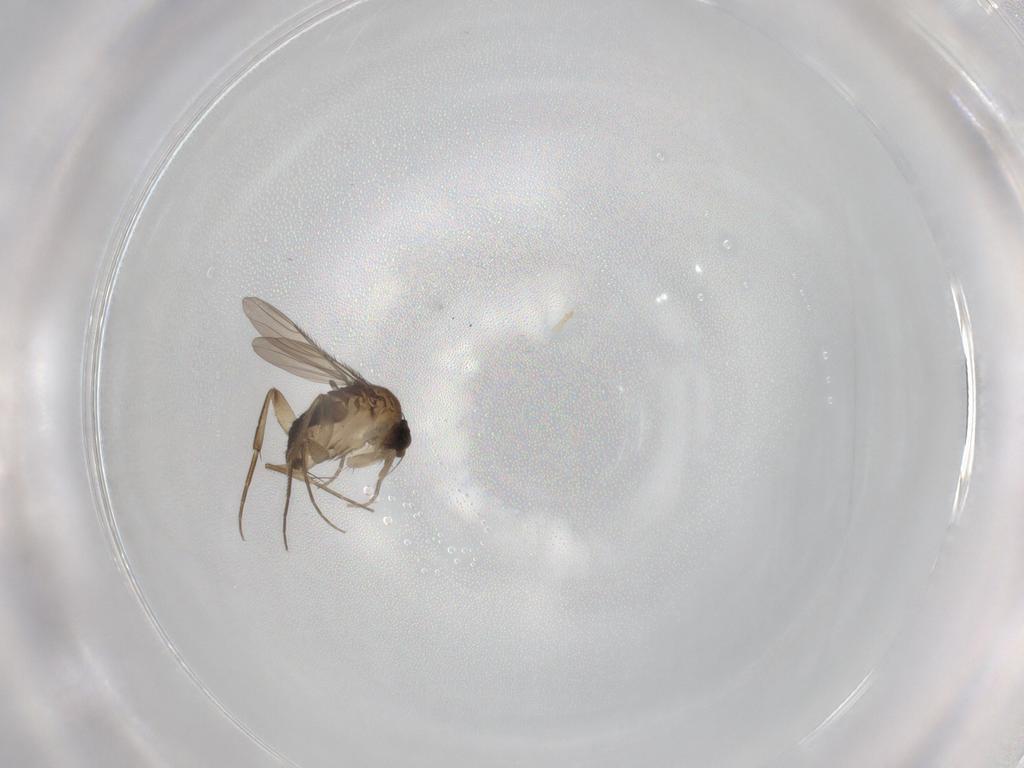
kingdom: Animalia
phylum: Arthropoda
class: Insecta
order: Diptera
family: Phoridae
